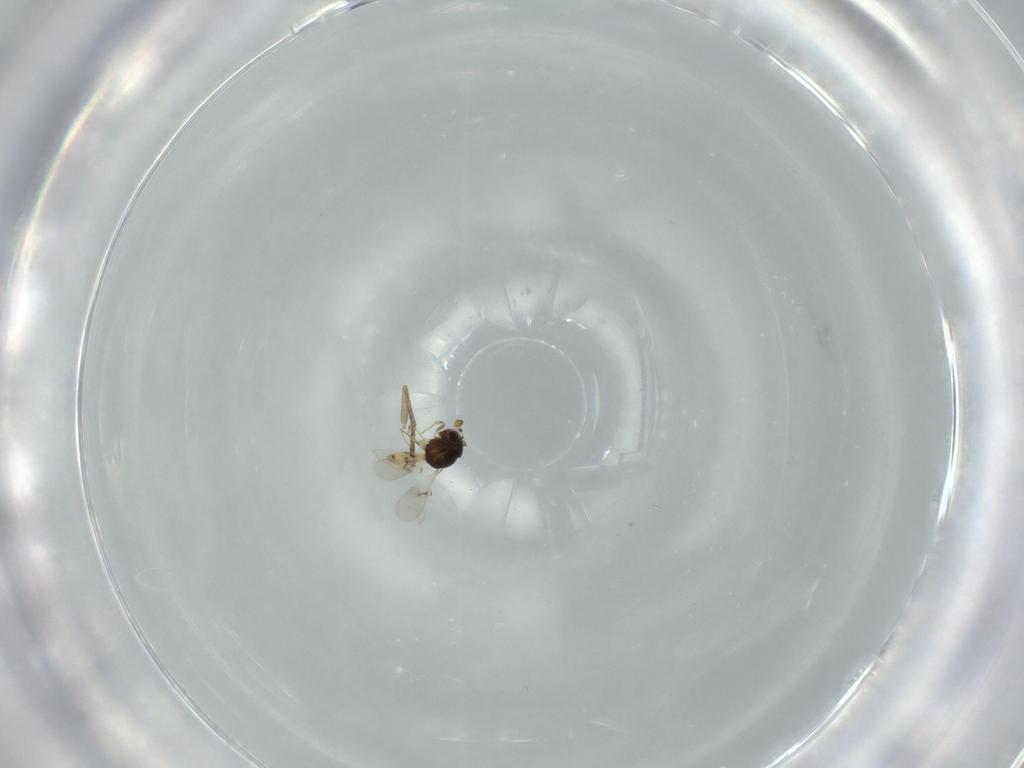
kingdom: Animalia
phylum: Arthropoda
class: Insecta
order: Hymenoptera
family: Scelionidae
